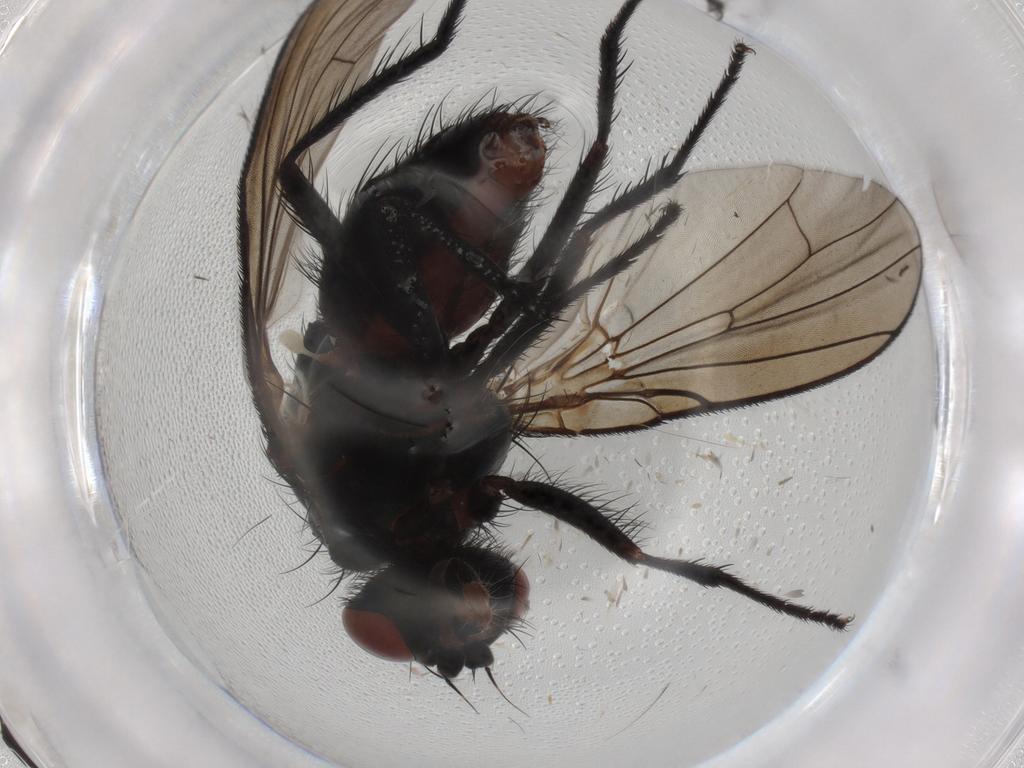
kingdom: Animalia
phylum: Arthropoda
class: Insecta
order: Diptera
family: Anthomyiidae
